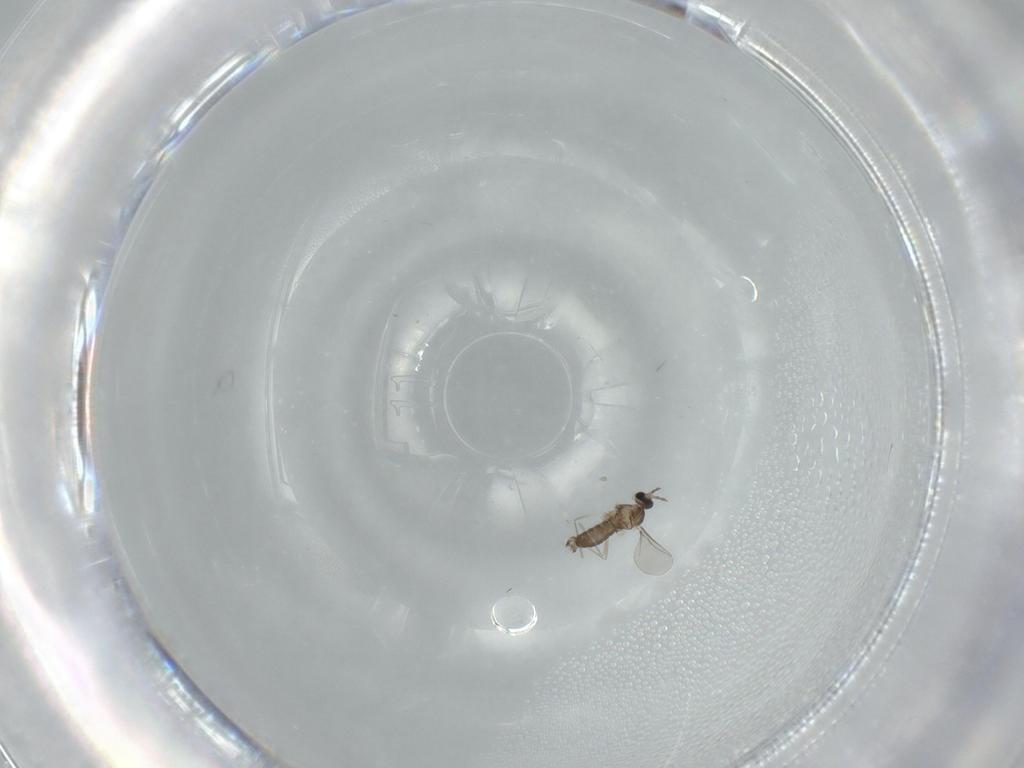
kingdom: Animalia
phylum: Arthropoda
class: Insecta
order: Diptera
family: Cecidomyiidae
